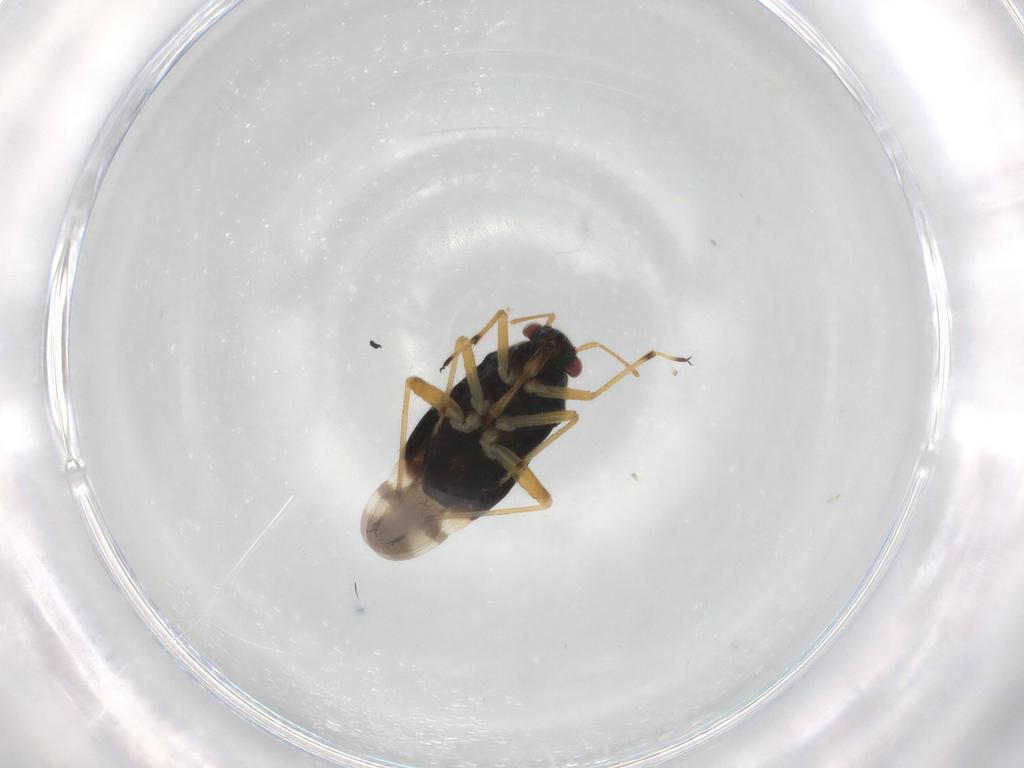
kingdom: Animalia
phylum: Arthropoda
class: Insecta
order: Hemiptera
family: Miridae
